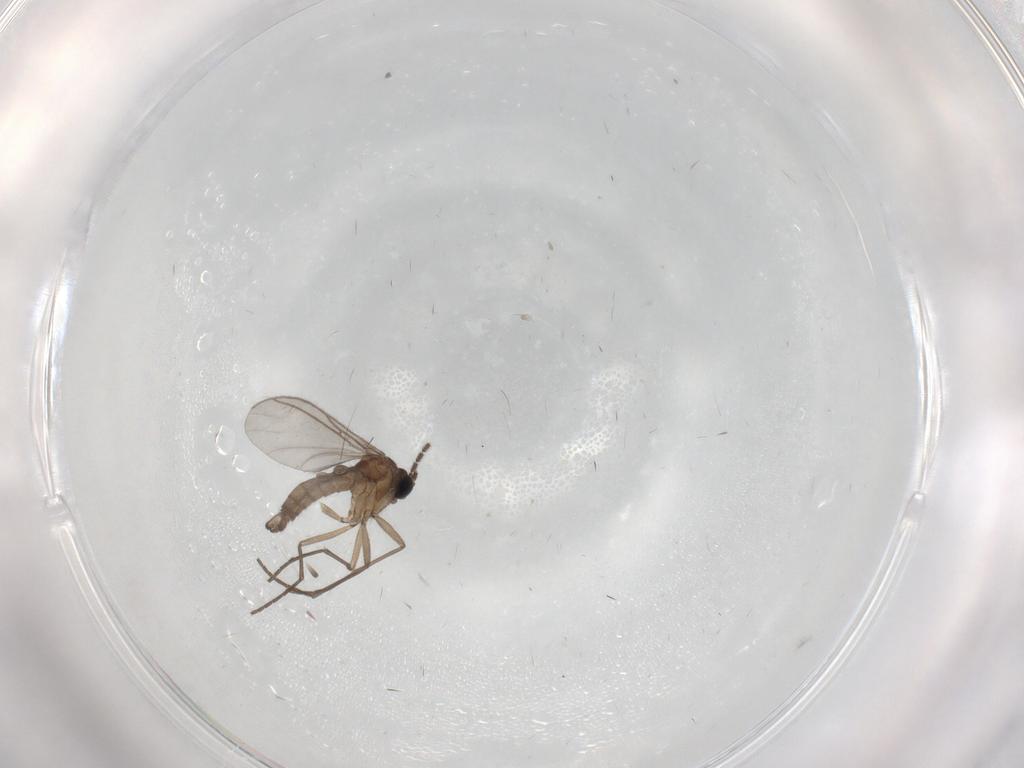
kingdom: Animalia
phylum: Arthropoda
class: Insecta
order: Diptera
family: Sciaridae
